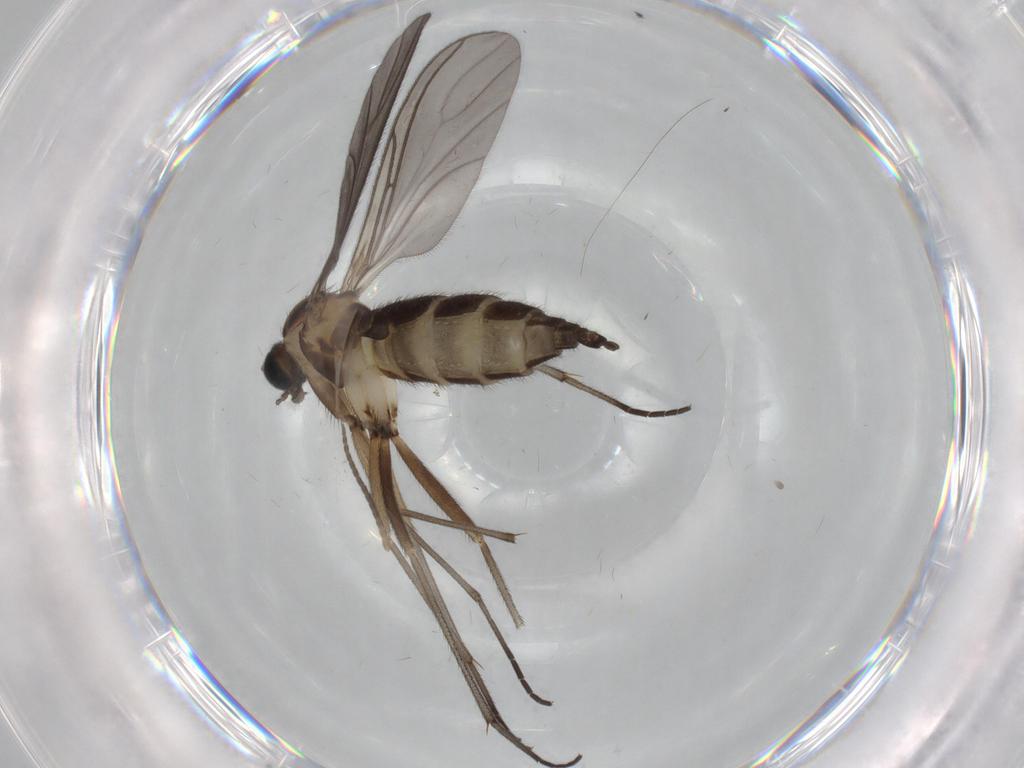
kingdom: Animalia
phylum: Arthropoda
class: Insecta
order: Diptera
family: Sciaridae
